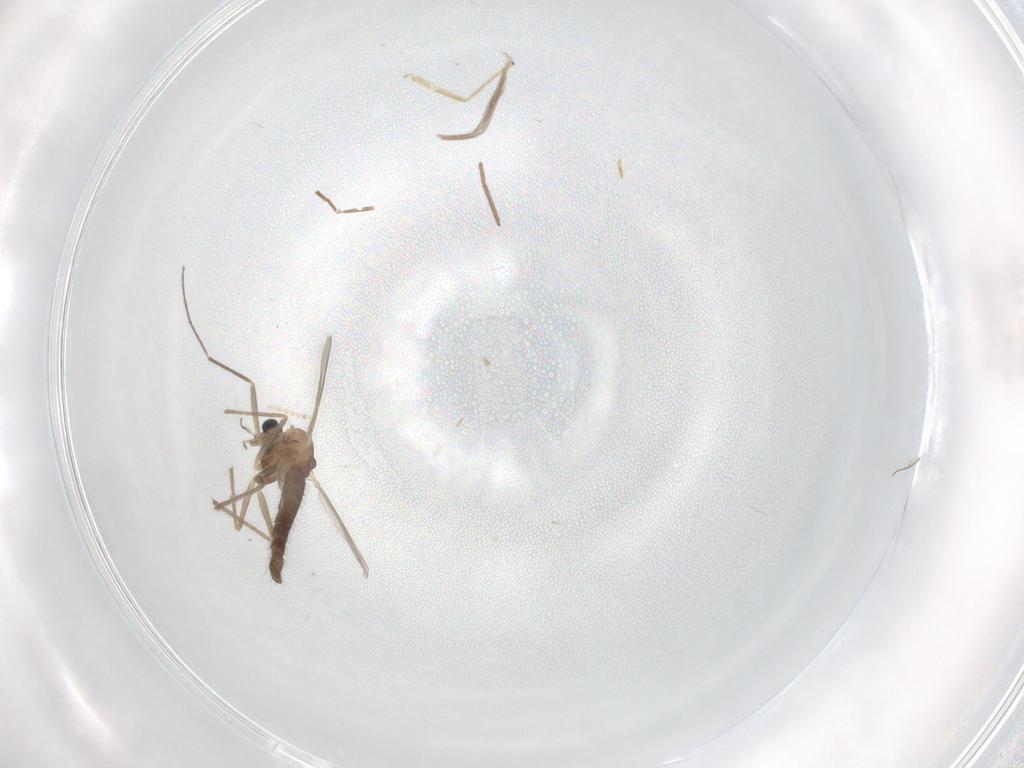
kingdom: Animalia
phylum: Arthropoda
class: Insecta
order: Diptera
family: Chironomidae
